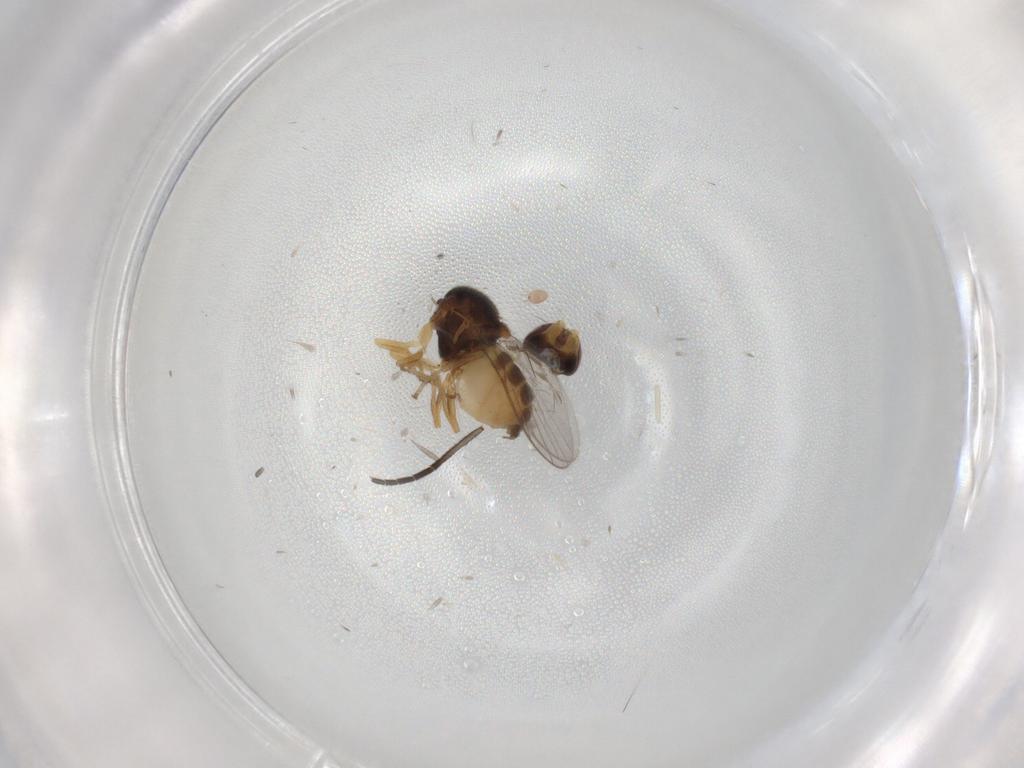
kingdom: Animalia
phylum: Arthropoda
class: Insecta
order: Diptera
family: Chloropidae
